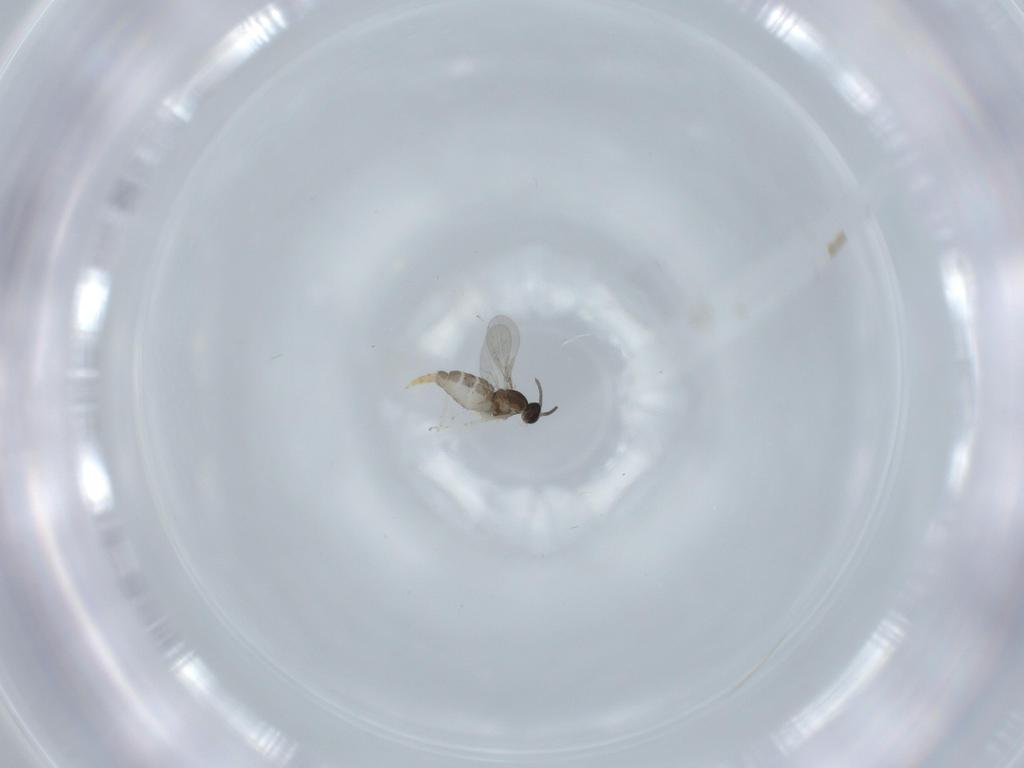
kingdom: Animalia
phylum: Arthropoda
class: Insecta
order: Diptera
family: Cecidomyiidae
